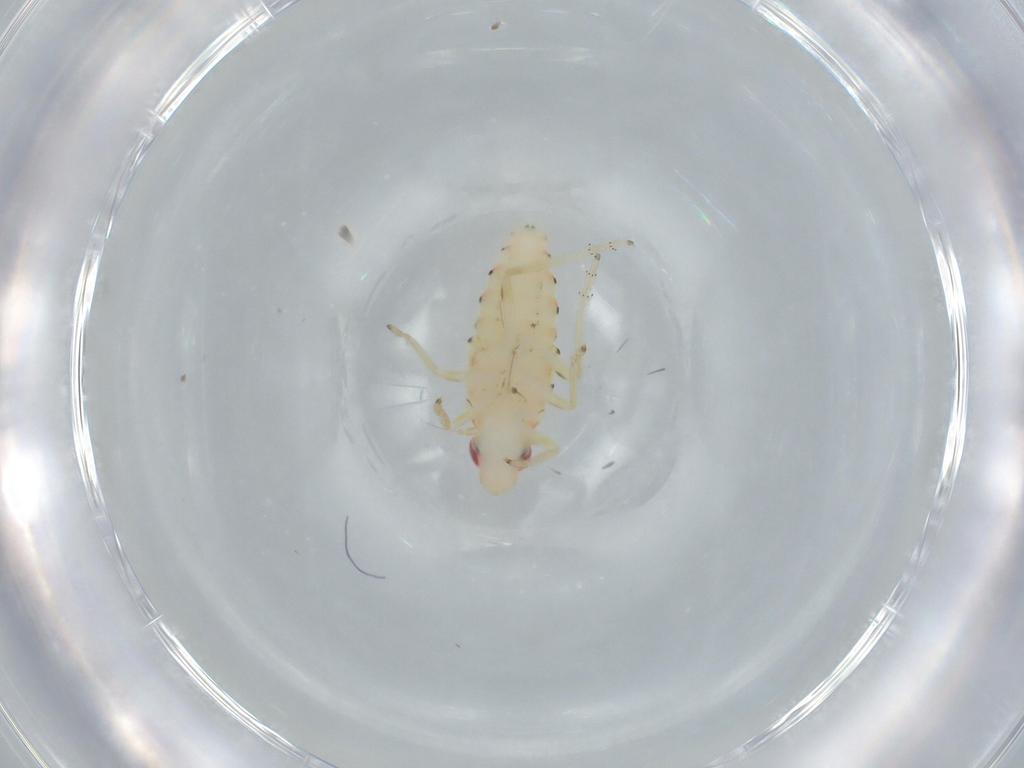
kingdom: Animalia
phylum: Arthropoda
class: Insecta
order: Hemiptera
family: Tropiduchidae
